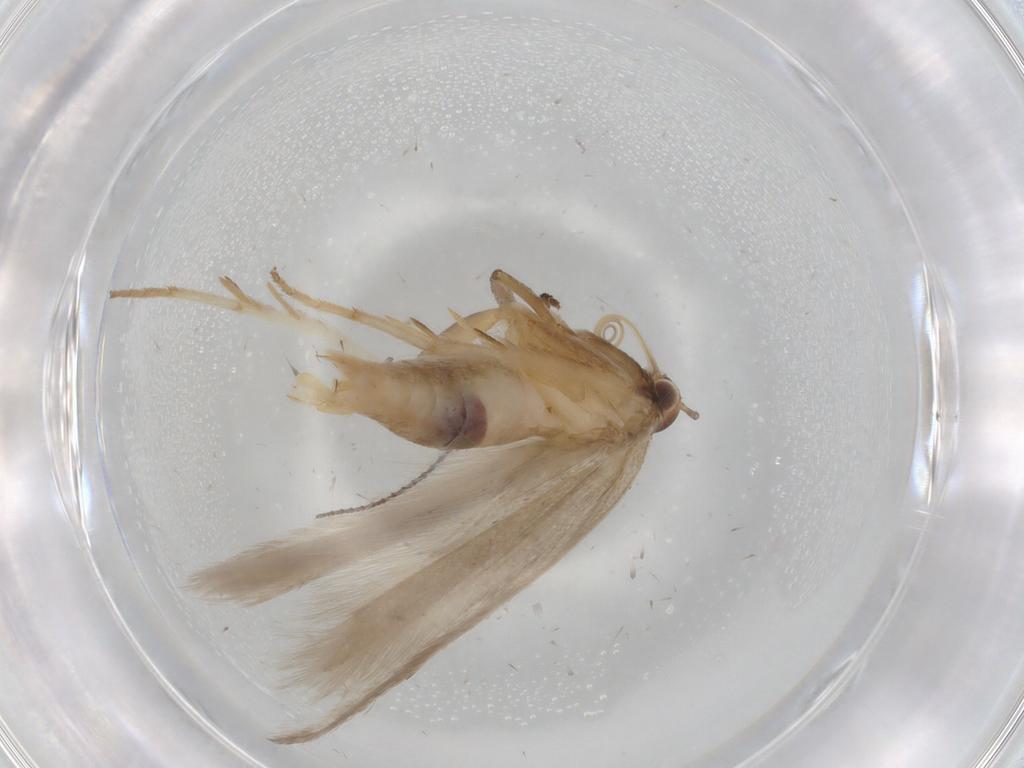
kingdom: Animalia
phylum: Arthropoda
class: Insecta
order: Lepidoptera
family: Gelechiidae
